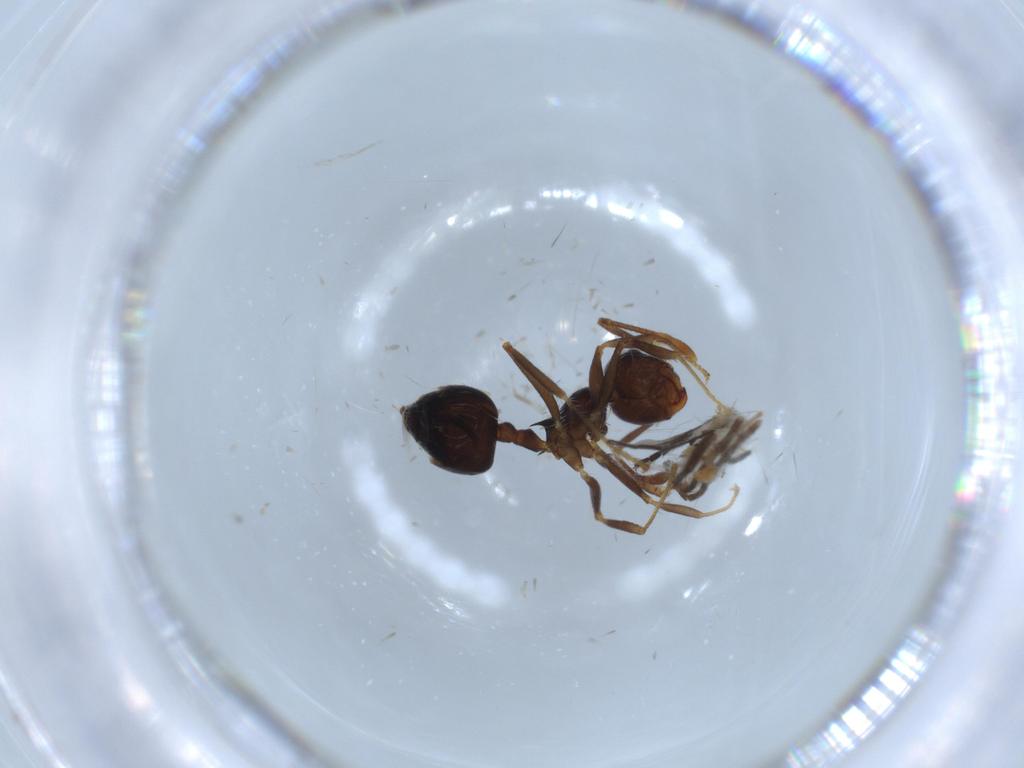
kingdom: Animalia
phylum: Arthropoda
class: Insecta
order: Hymenoptera
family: Formicidae
